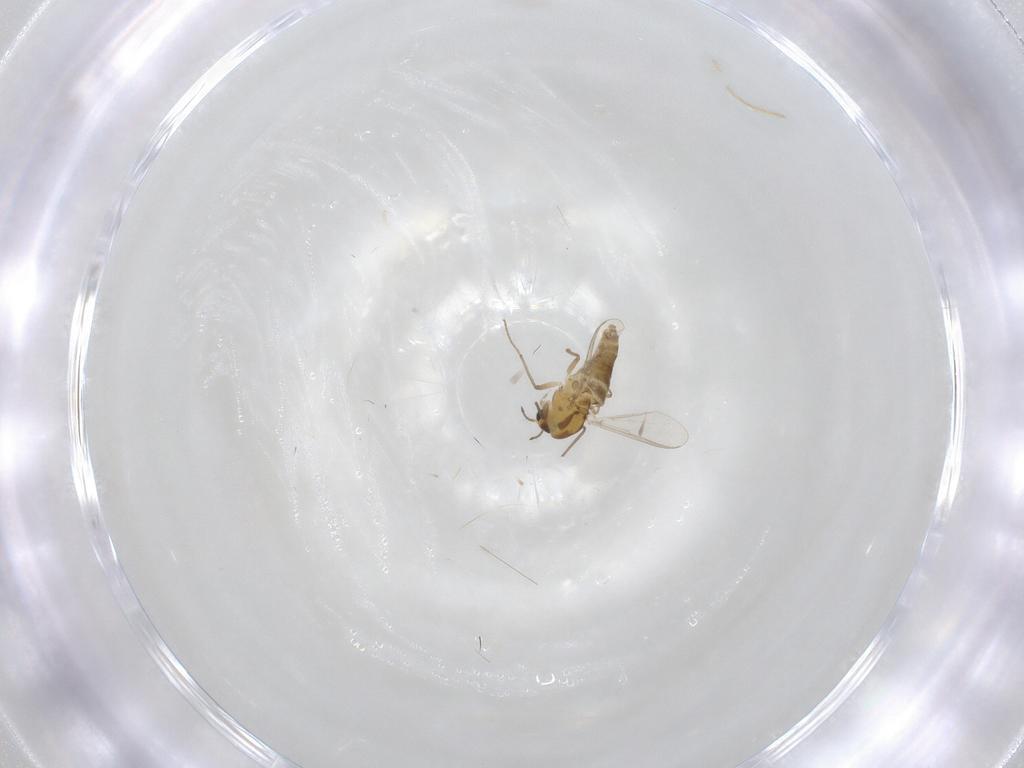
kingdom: Animalia
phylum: Arthropoda
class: Insecta
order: Diptera
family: Chironomidae
